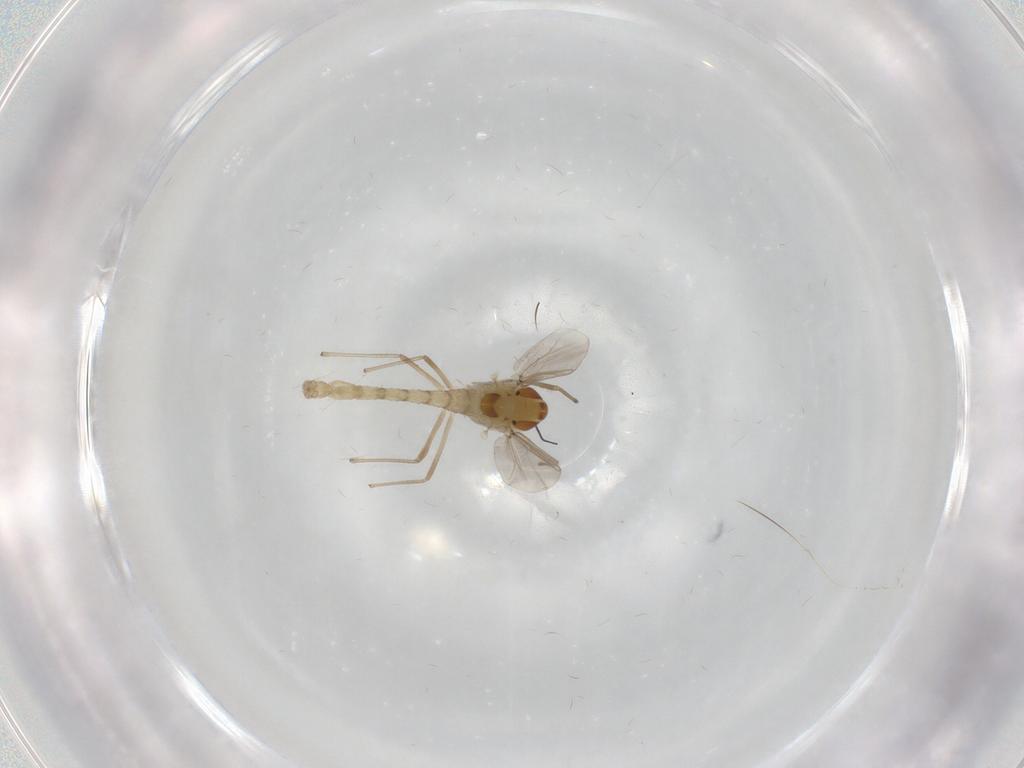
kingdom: Animalia
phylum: Arthropoda
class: Insecta
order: Diptera
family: Chironomidae
